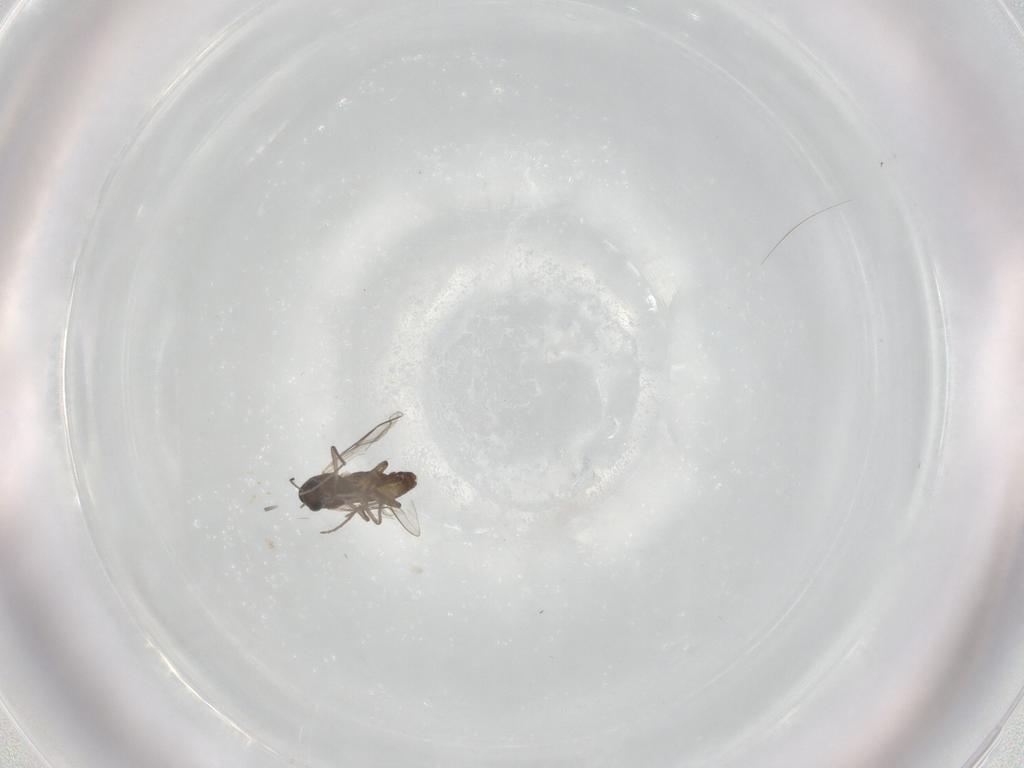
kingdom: Animalia
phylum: Arthropoda
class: Insecta
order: Diptera
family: Chironomidae
